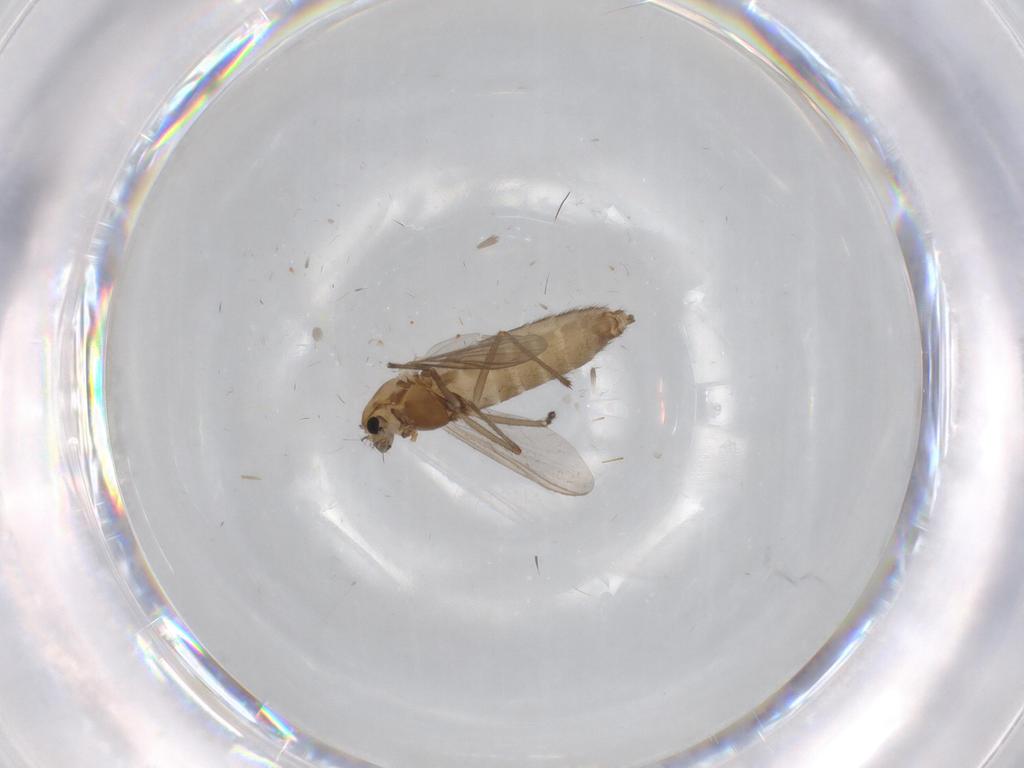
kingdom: Animalia
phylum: Arthropoda
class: Insecta
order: Diptera
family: Chironomidae
